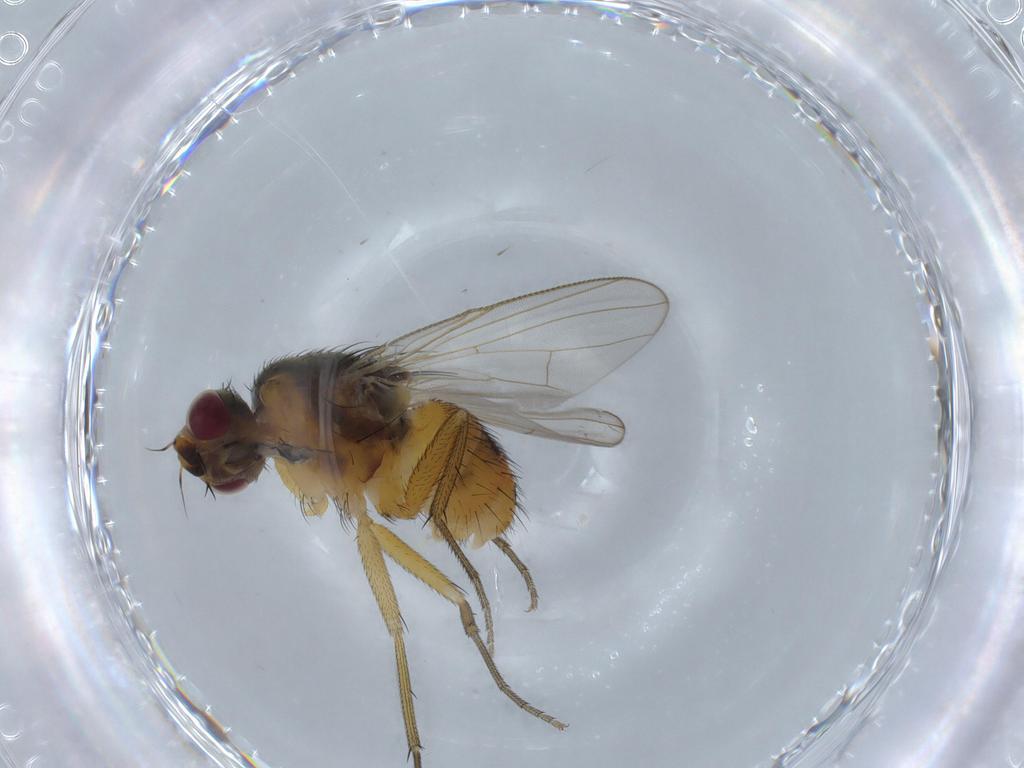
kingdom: Animalia
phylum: Arthropoda
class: Insecta
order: Diptera
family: Muscidae
